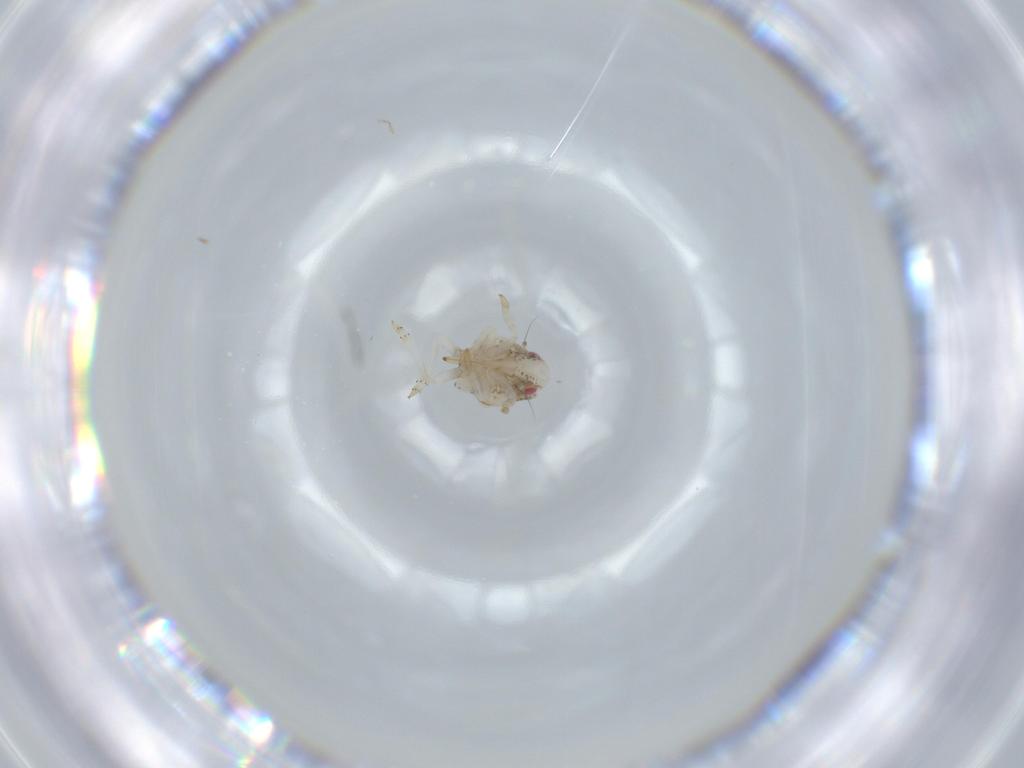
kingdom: Animalia
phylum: Arthropoda
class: Insecta
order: Hemiptera
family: Acanaloniidae
